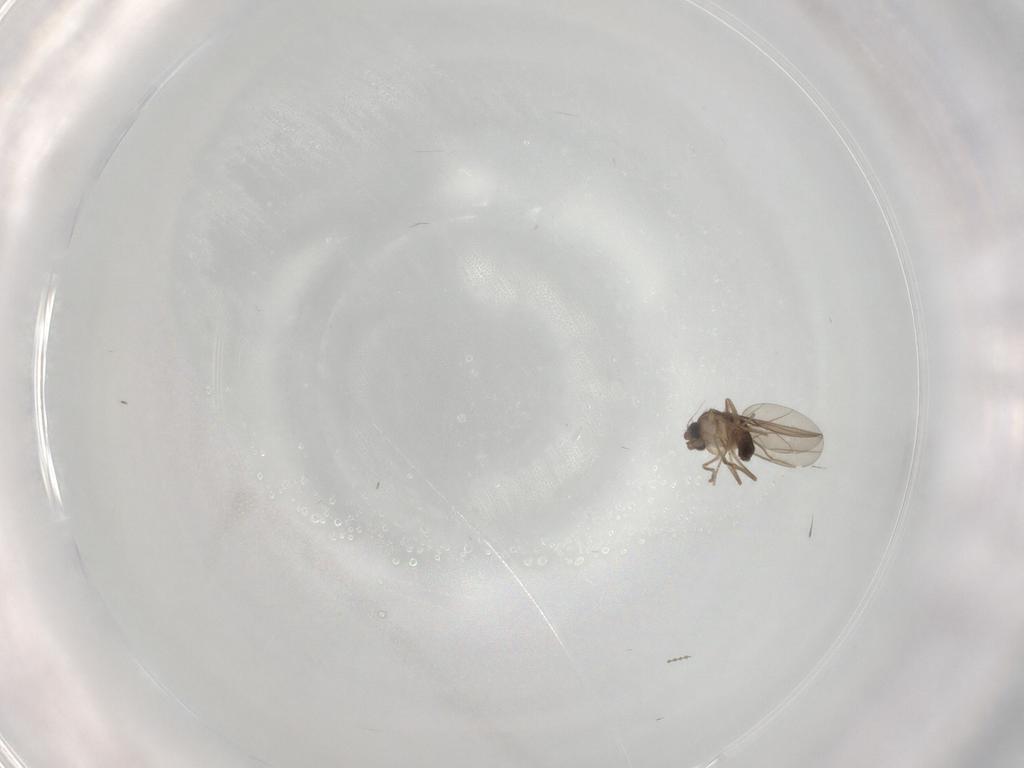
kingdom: Animalia
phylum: Arthropoda
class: Insecta
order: Diptera
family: Phoridae
